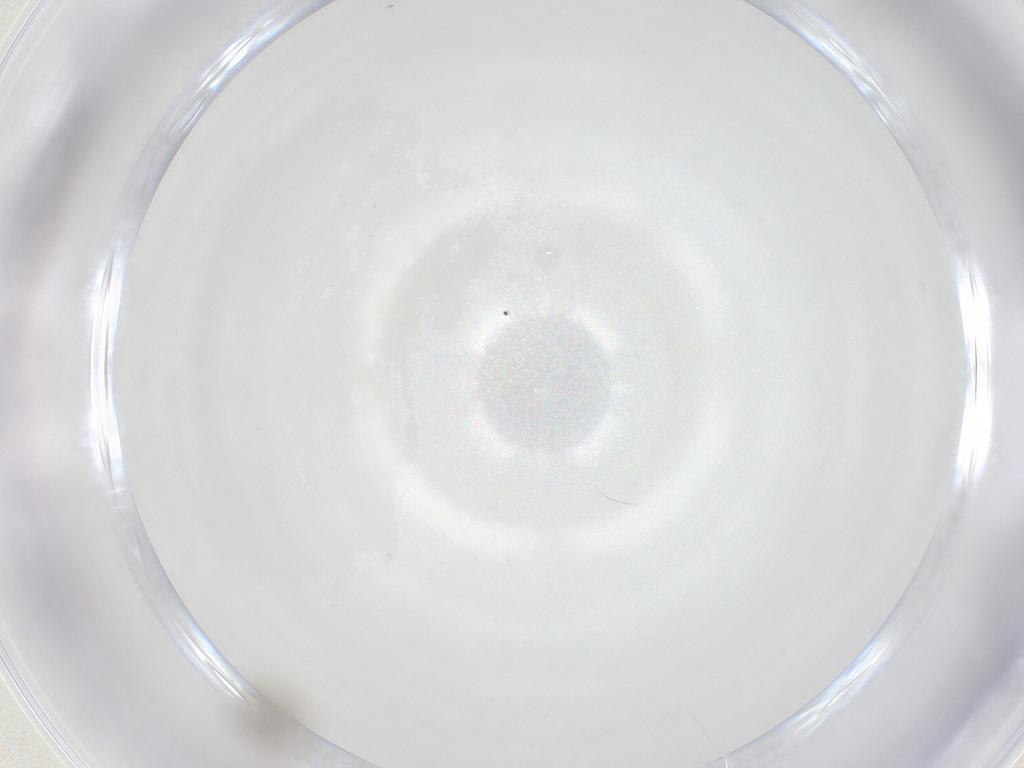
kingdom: Animalia
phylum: Arthropoda
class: Insecta
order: Hemiptera
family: Aphididae
